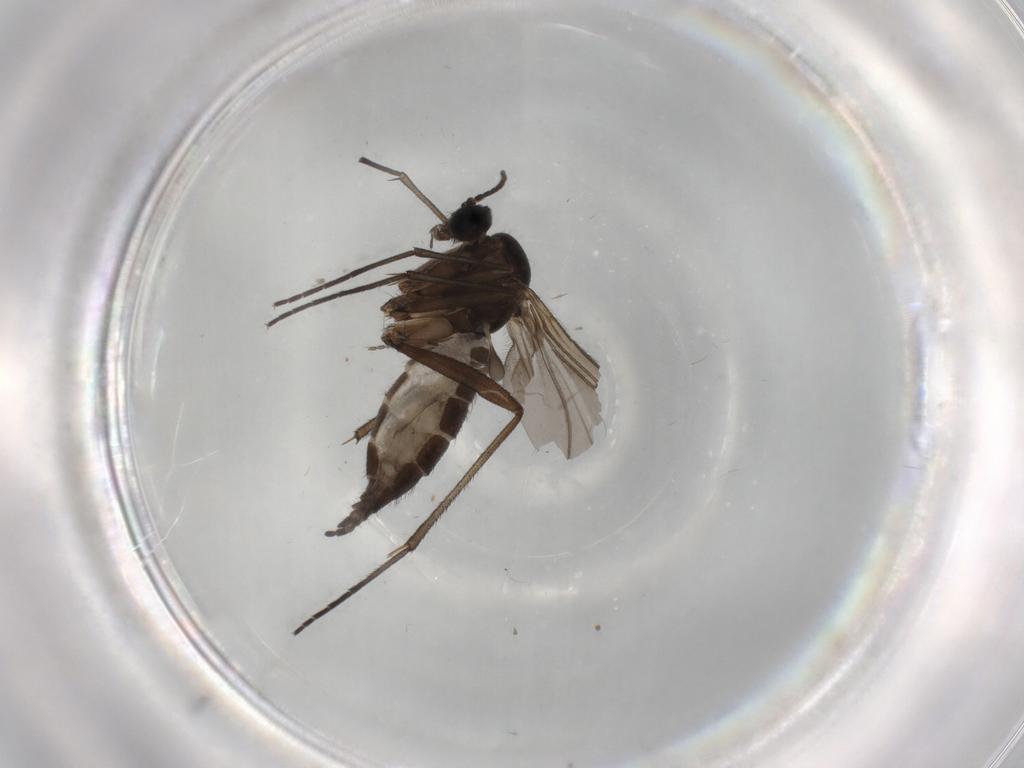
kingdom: Animalia
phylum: Arthropoda
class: Insecta
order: Diptera
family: Sciaridae
